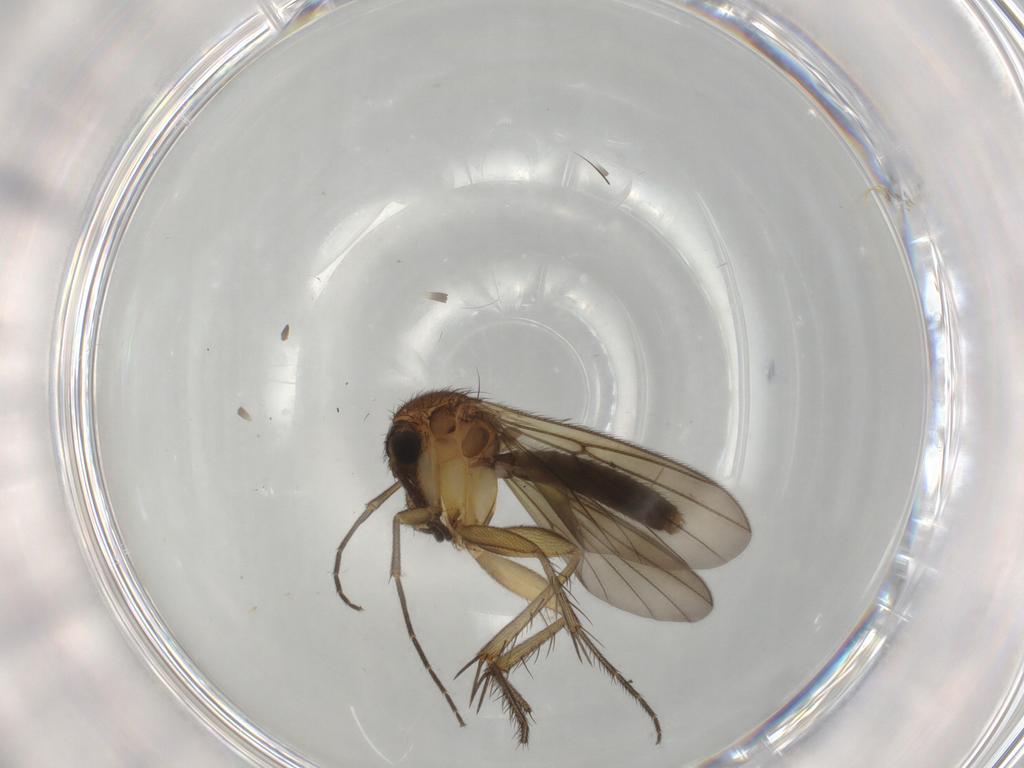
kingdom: Animalia
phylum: Arthropoda
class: Insecta
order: Diptera
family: Mycetophilidae
